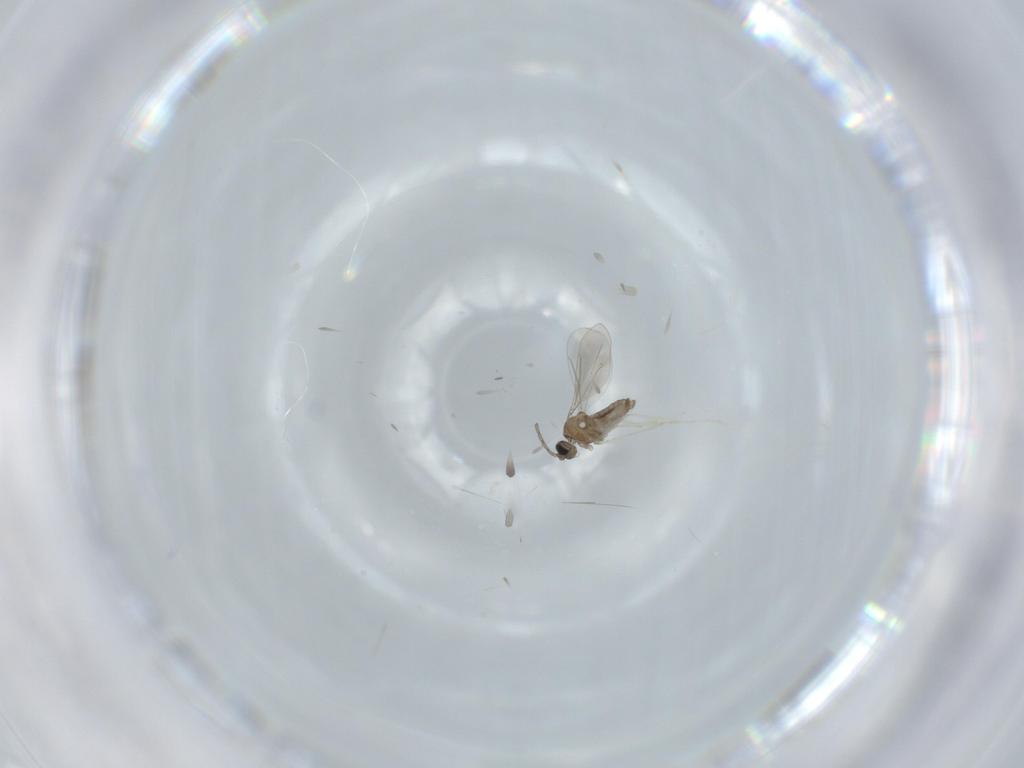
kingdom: Animalia
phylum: Arthropoda
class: Insecta
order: Diptera
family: Cecidomyiidae
